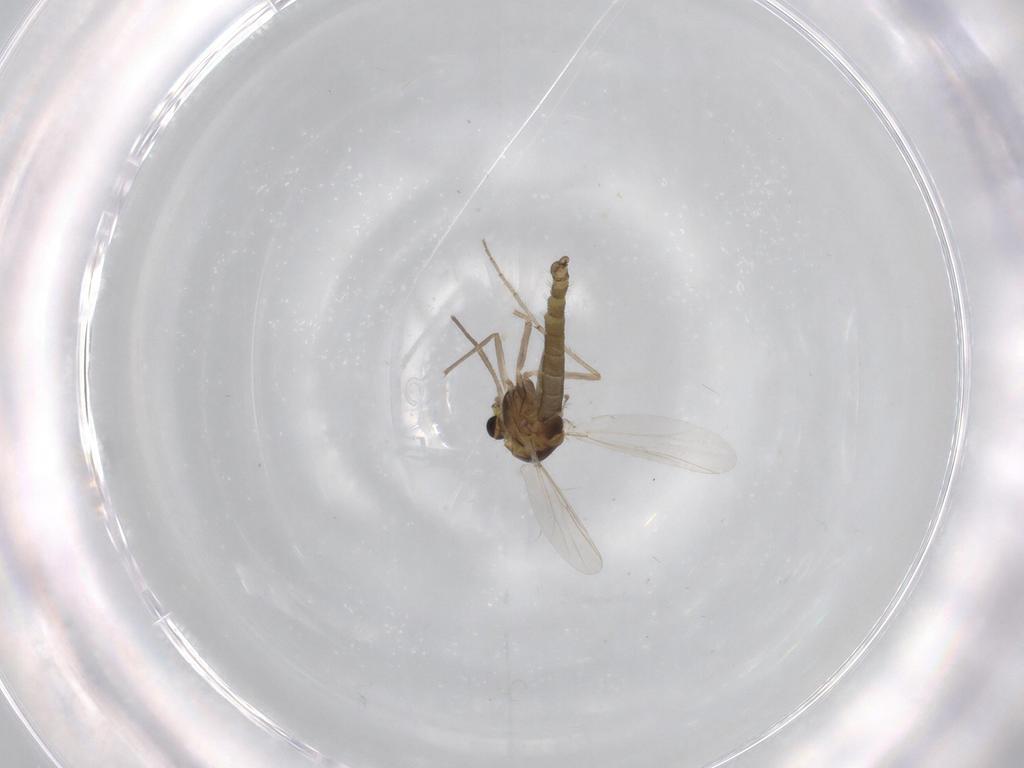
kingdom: Animalia
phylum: Arthropoda
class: Insecta
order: Diptera
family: Chironomidae
